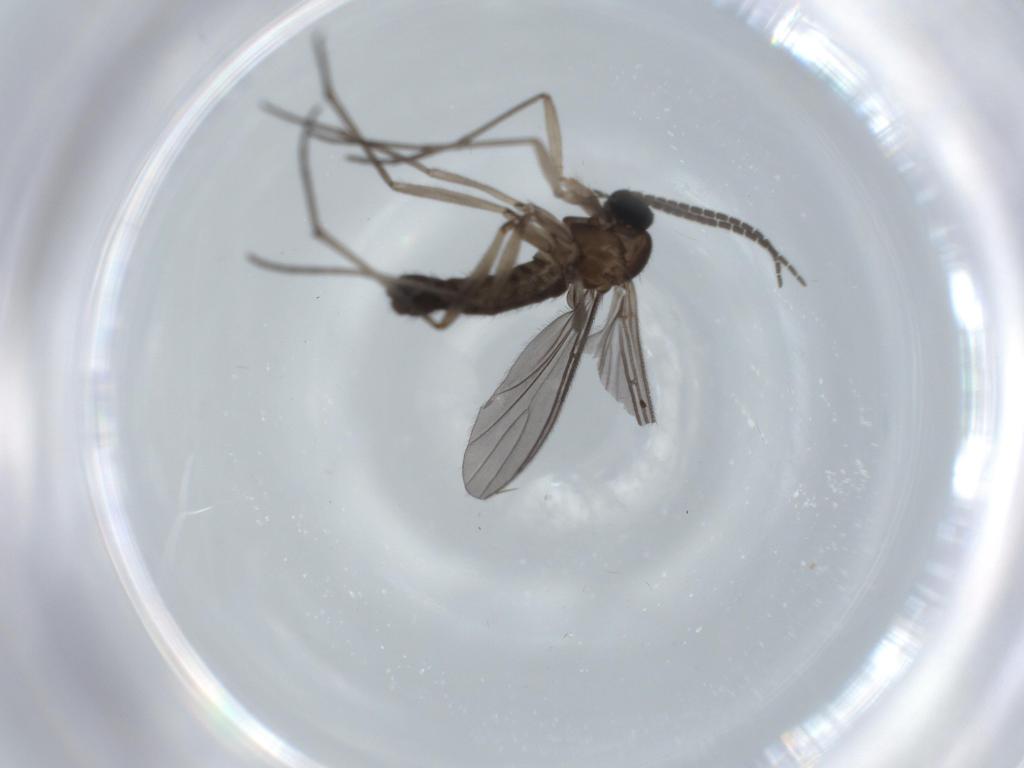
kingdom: Animalia
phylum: Arthropoda
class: Insecta
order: Diptera
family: Sciaridae
